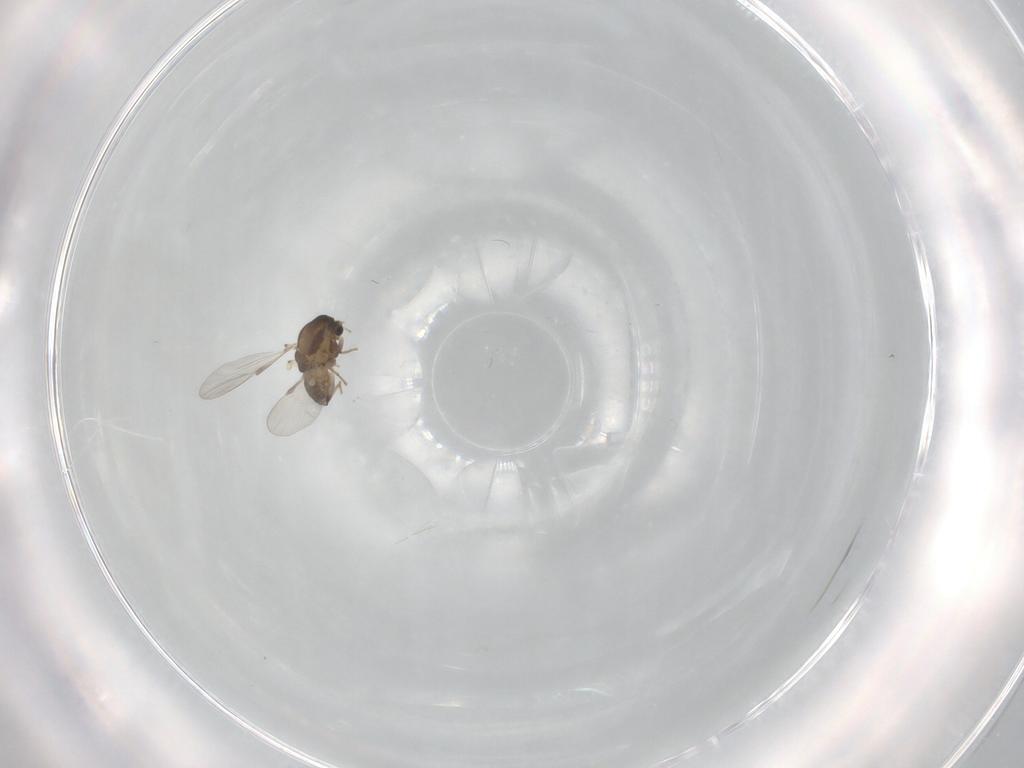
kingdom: Animalia
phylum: Arthropoda
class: Insecta
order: Diptera
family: Chironomidae
